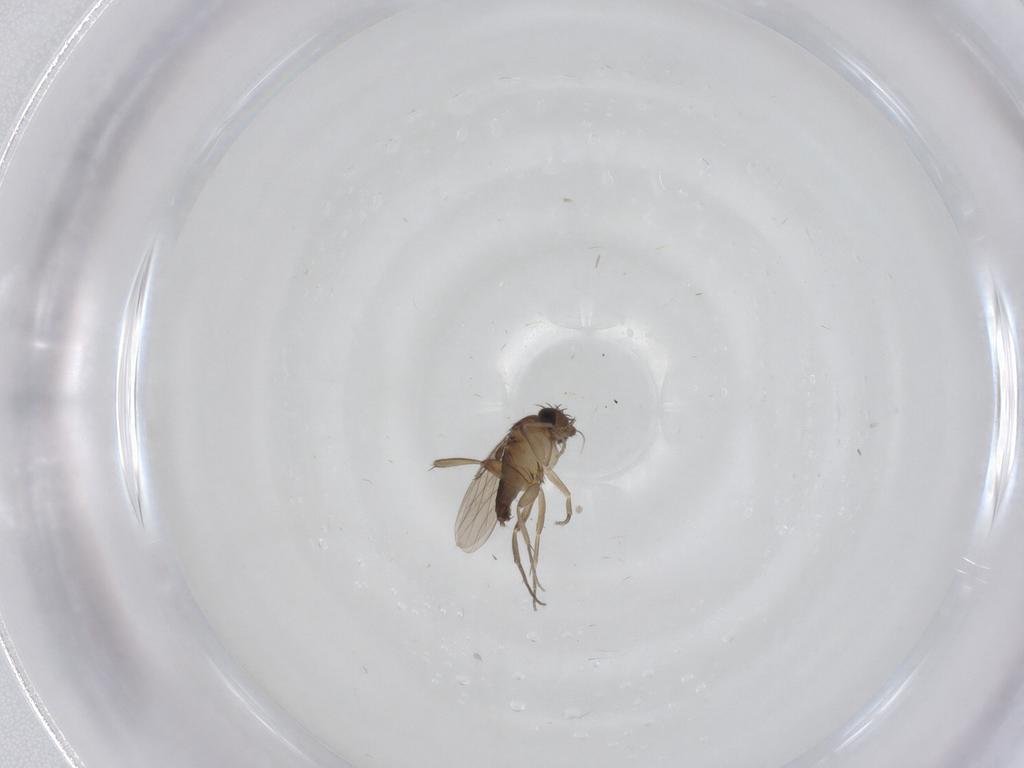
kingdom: Animalia
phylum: Arthropoda
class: Insecta
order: Diptera
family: Phoridae
